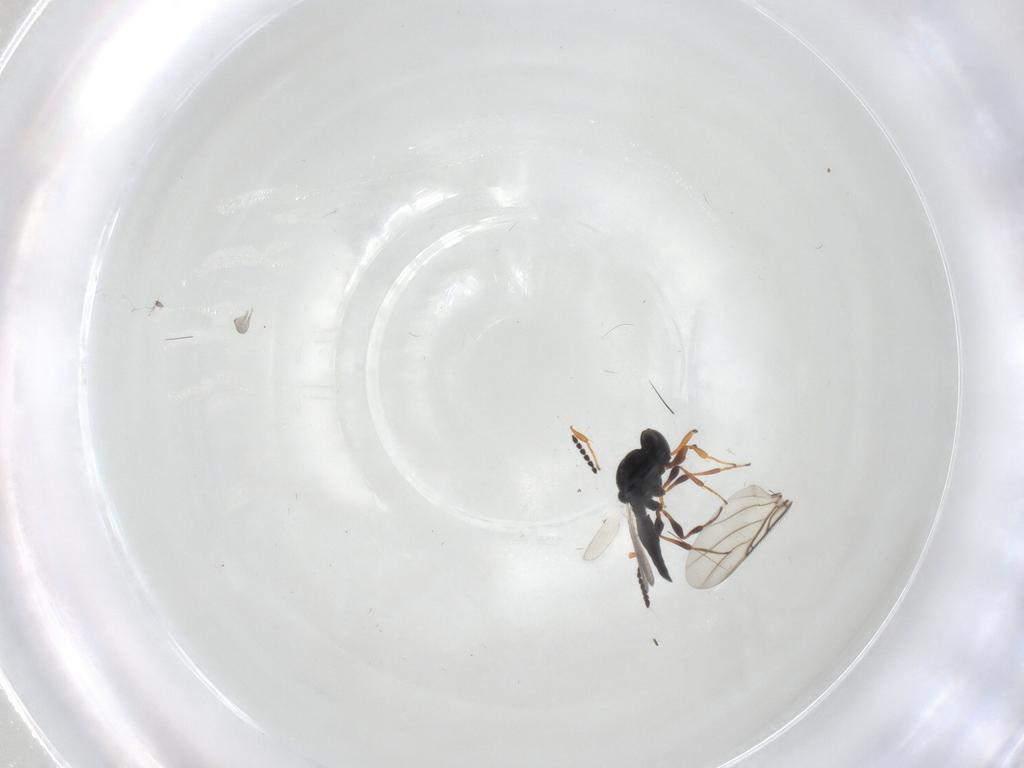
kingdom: Animalia
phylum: Arthropoda
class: Insecta
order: Hymenoptera
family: Platygastridae
